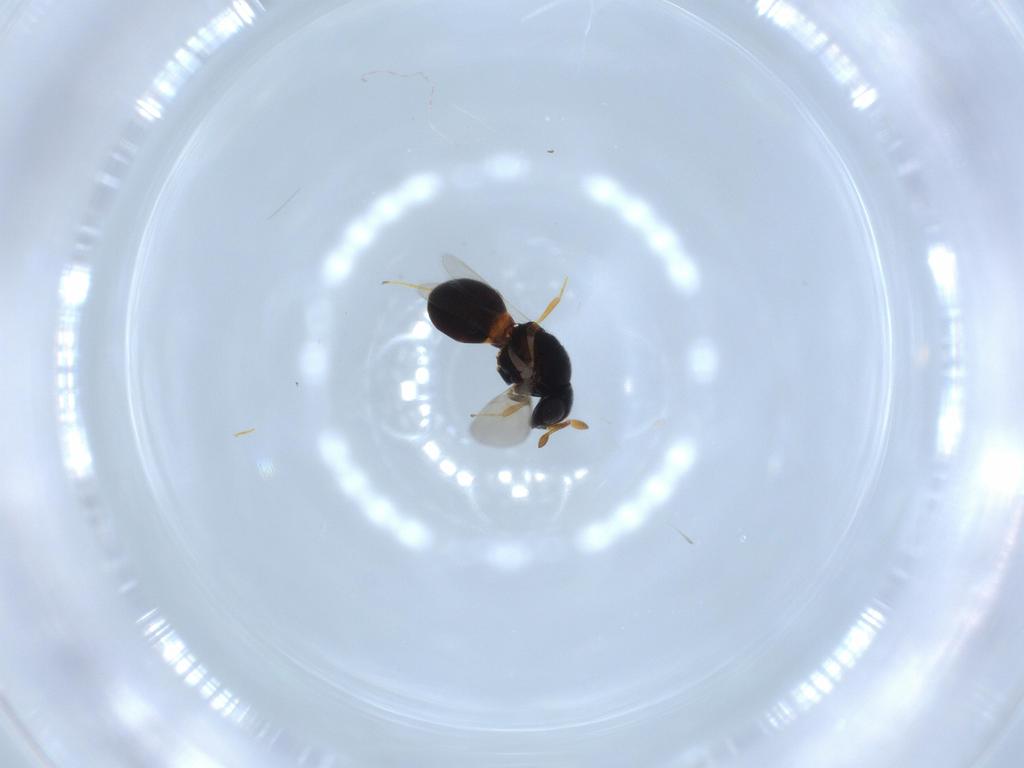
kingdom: Animalia
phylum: Arthropoda
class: Insecta
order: Hymenoptera
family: Scelionidae
